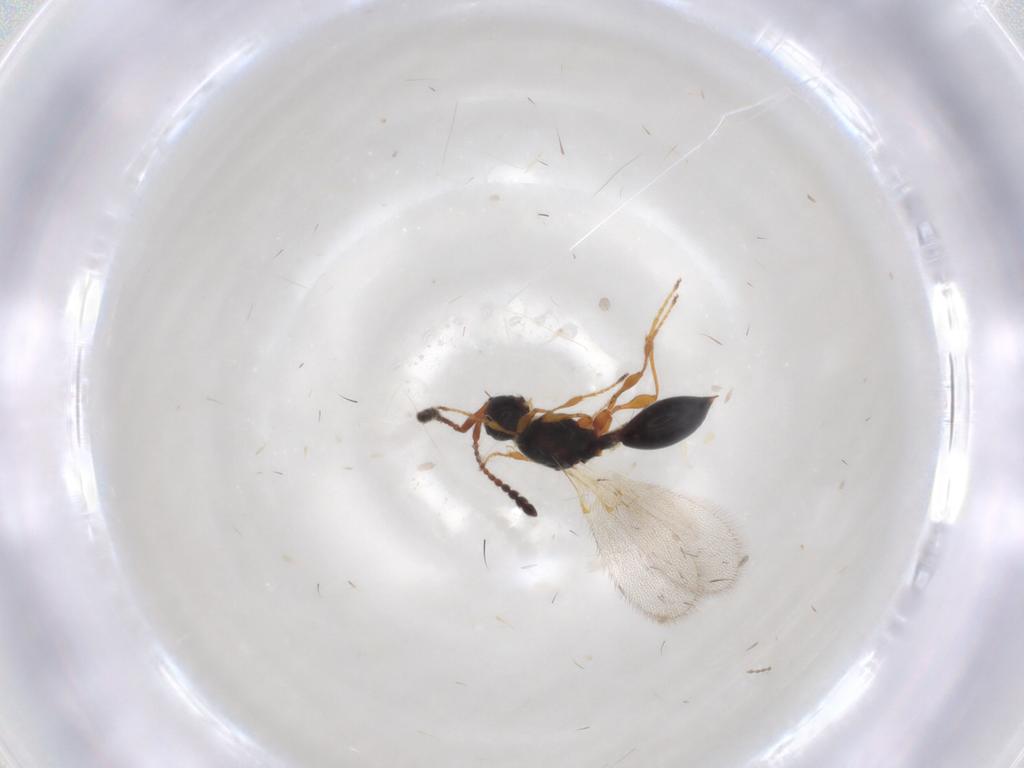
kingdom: Animalia
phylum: Arthropoda
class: Insecta
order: Hymenoptera
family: Diapriidae
